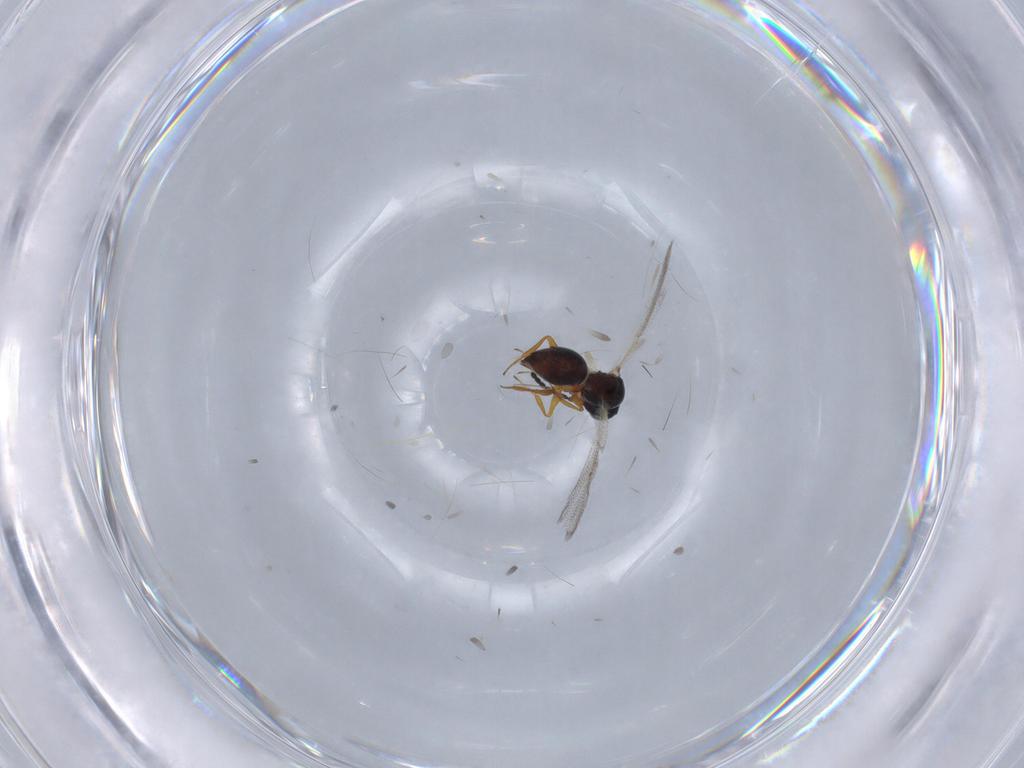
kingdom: Animalia
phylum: Arthropoda
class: Insecta
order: Hymenoptera
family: Figitidae
